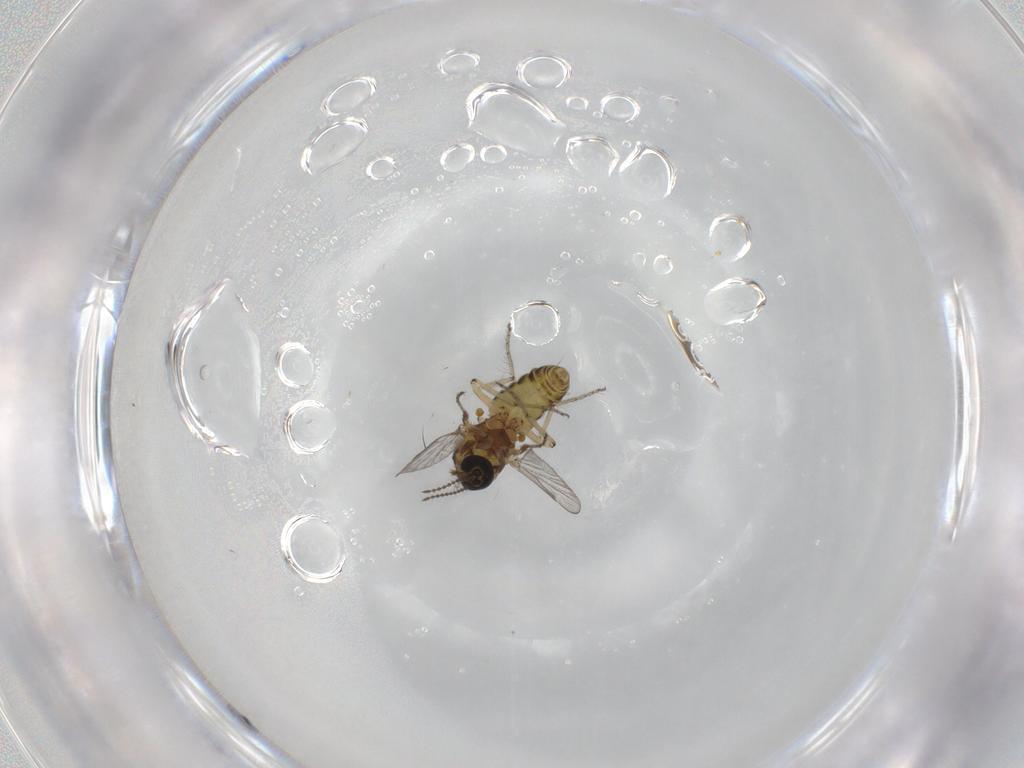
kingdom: Animalia
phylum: Arthropoda
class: Insecta
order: Diptera
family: Ceratopogonidae
